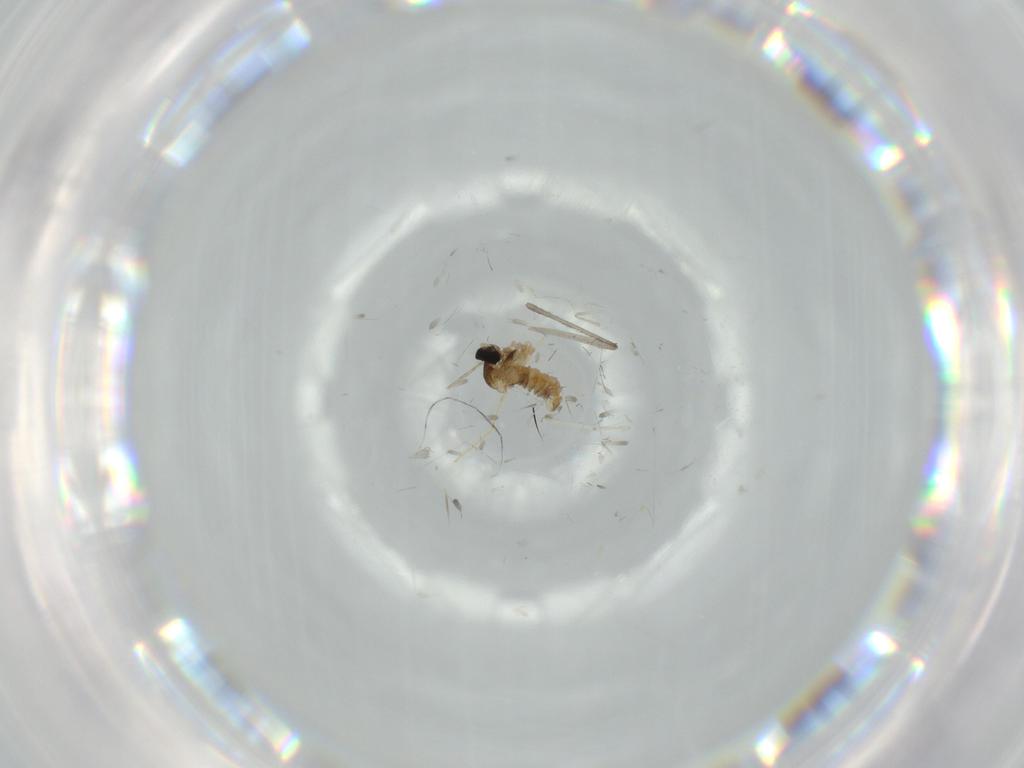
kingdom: Animalia
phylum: Arthropoda
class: Insecta
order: Diptera
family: Cecidomyiidae
